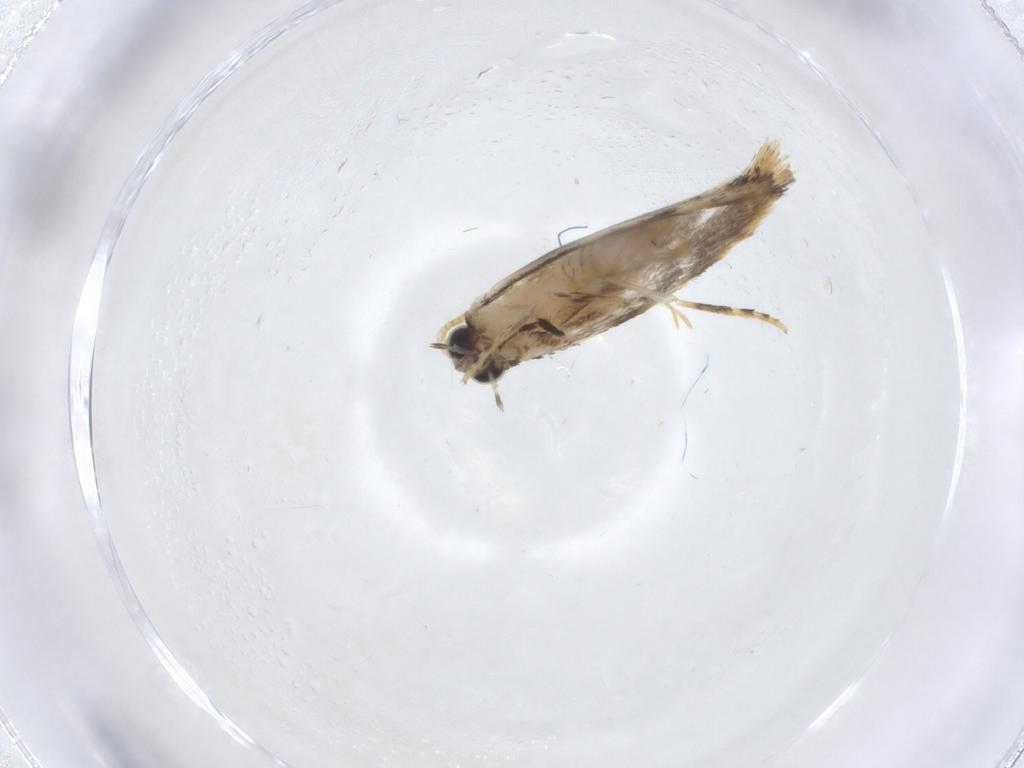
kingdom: Animalia
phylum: Arthropoda
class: Insecta
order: Lepidoptera
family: Tineidae
